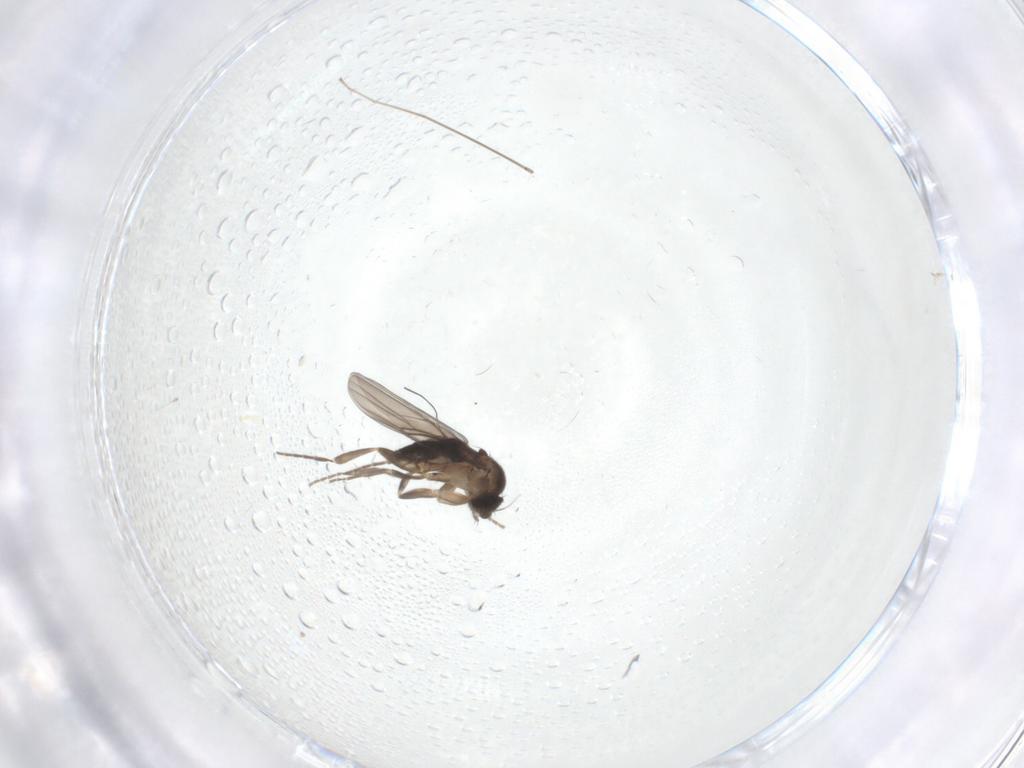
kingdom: Animalia
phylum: Arthropoda
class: Insecta
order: Diptera
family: Phoridae
